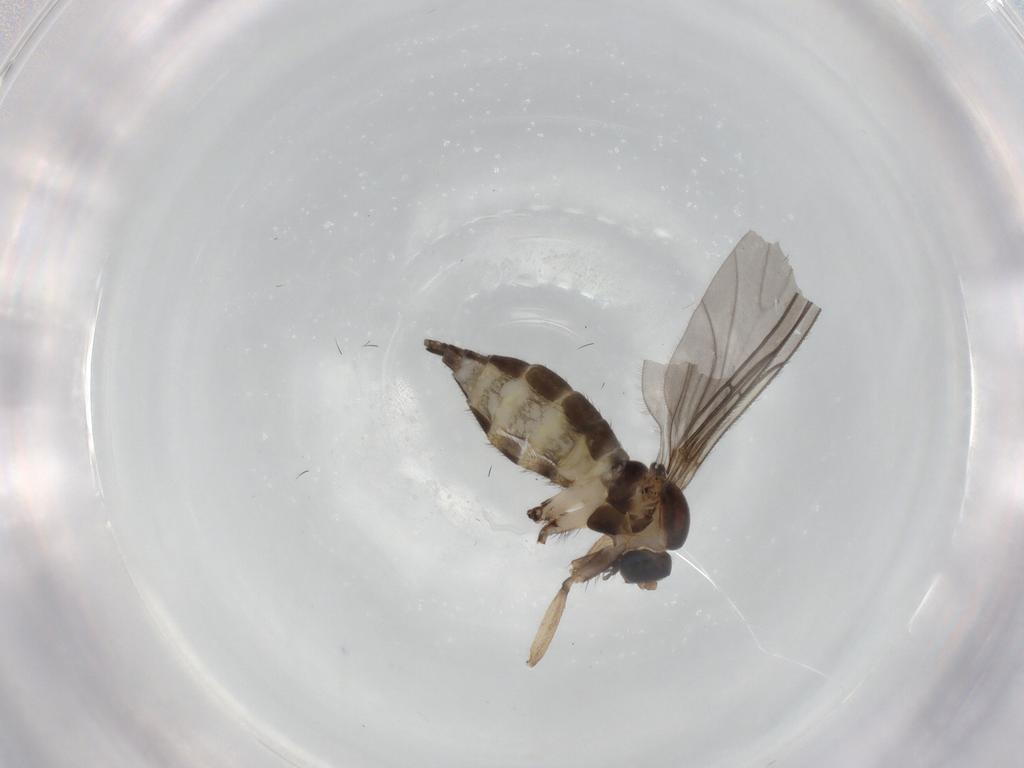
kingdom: Animalia
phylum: Arthropoda
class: Insecta
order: Diptera
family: Sciaridae
